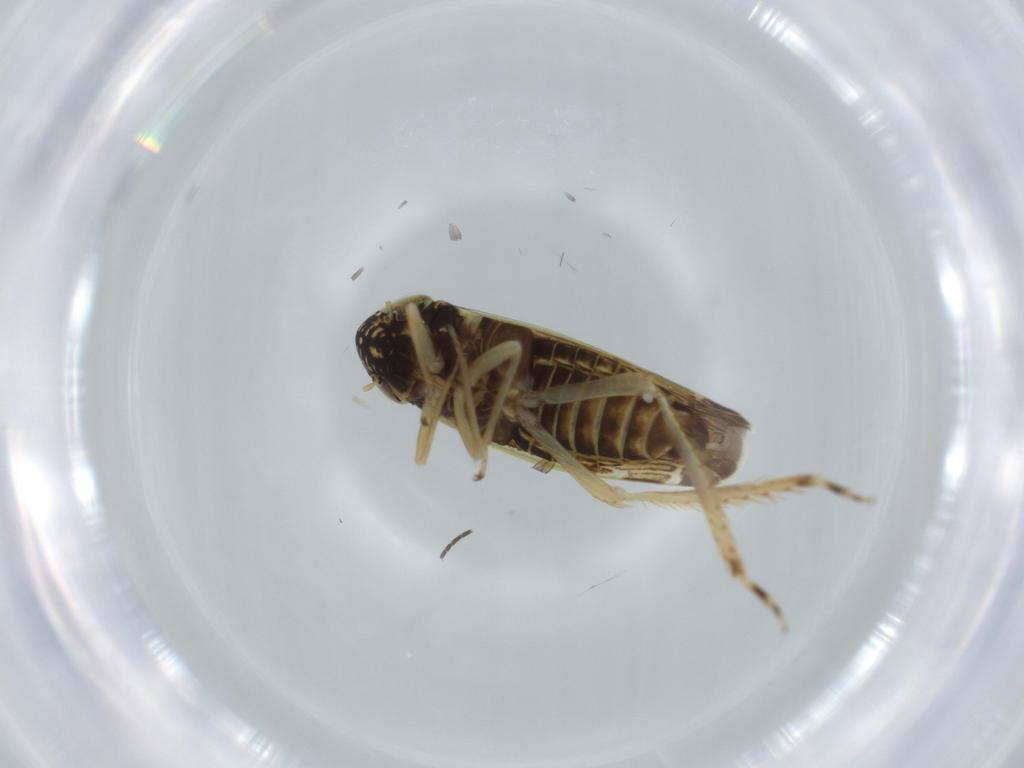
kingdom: Animalia
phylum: Arthropoda
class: Insecta
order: Hemiptera
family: Cicadellidae
